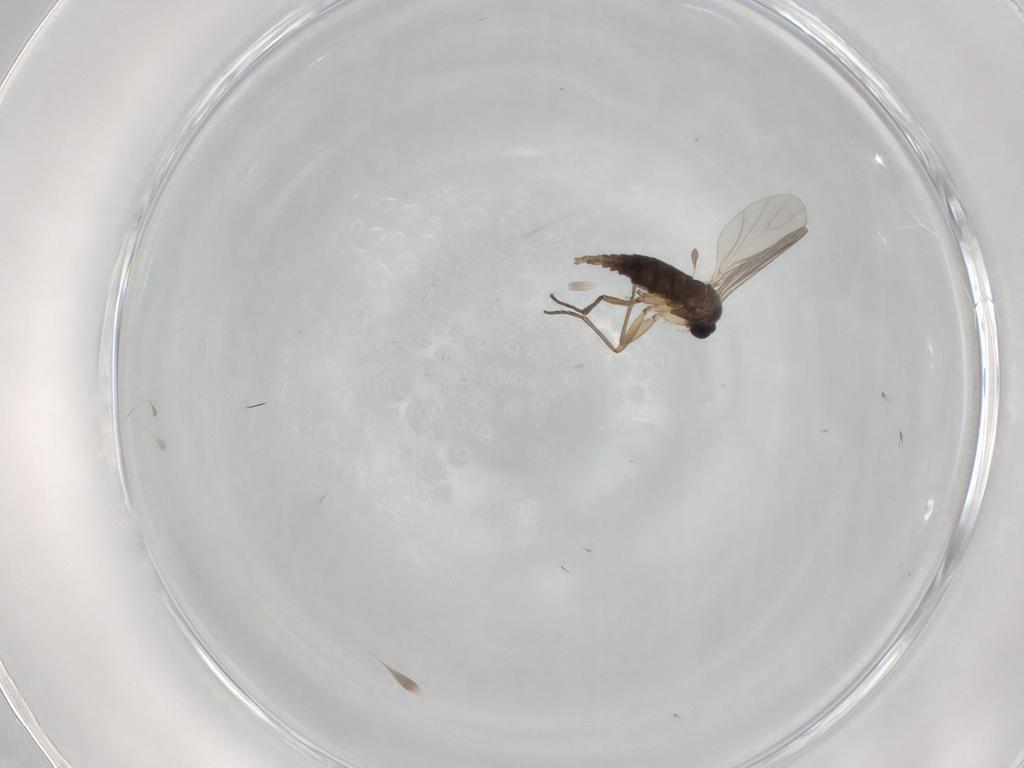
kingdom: Animalia
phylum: Arthropoda
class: Insecta
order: Diptera
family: Sciaridae
